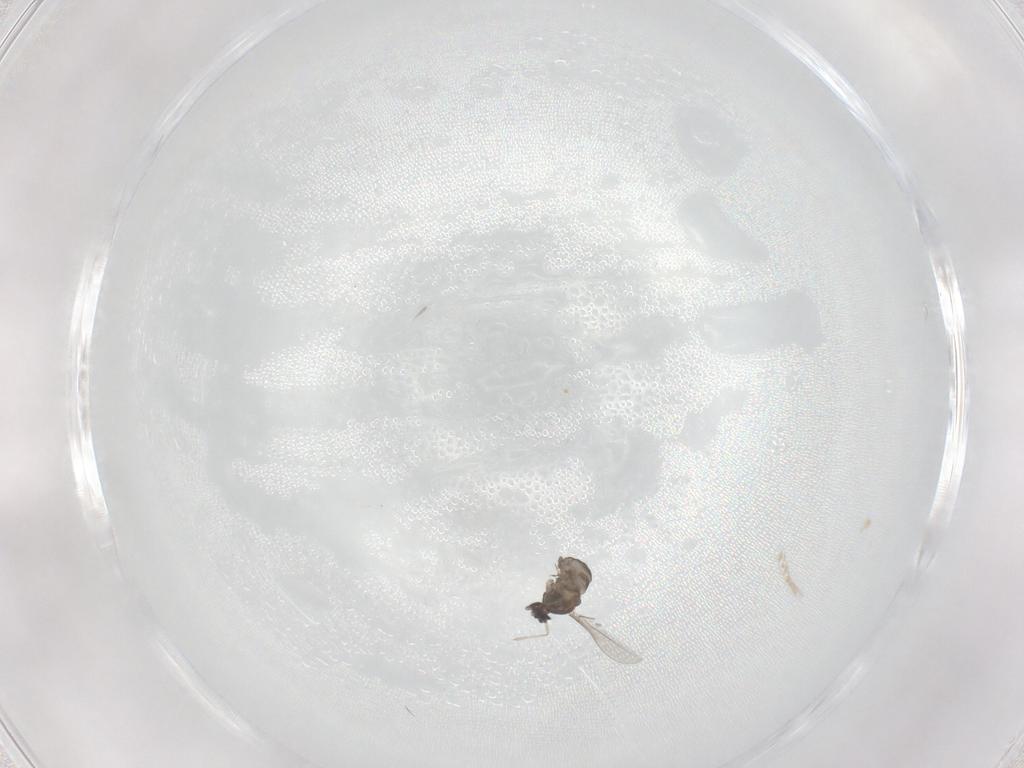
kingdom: Animalia
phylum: Arthropoda
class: Insecta
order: Diptera
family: Cecidomyiidae
